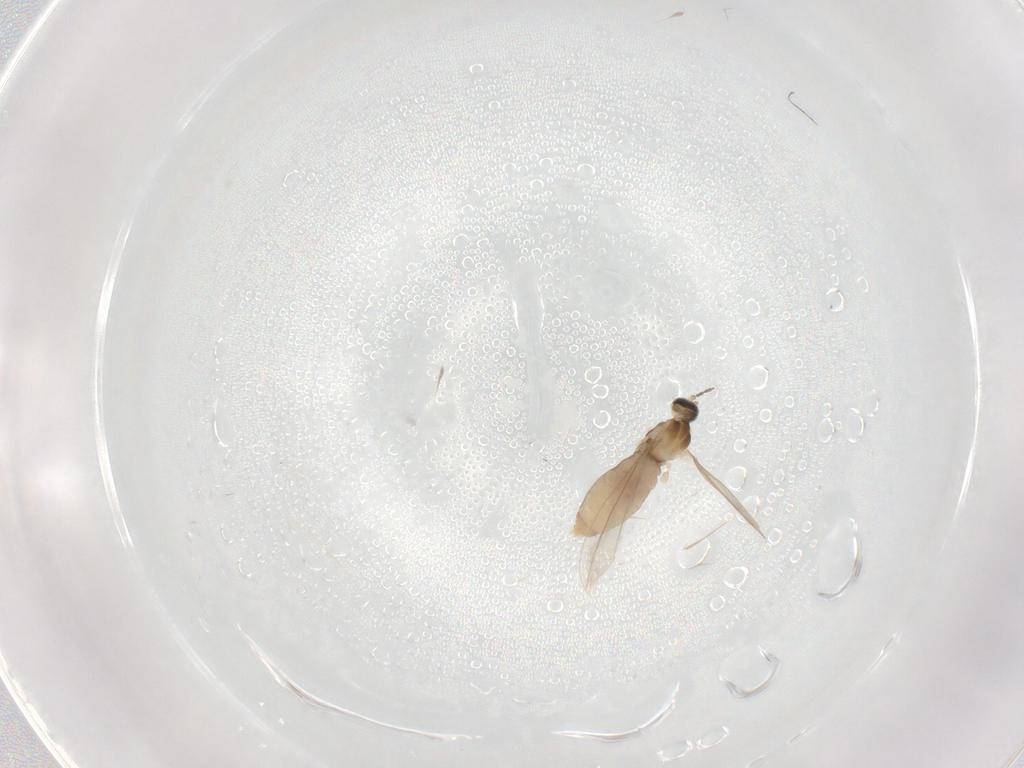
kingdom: Animalia
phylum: Arthropoda
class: Insecta
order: Diptera
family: Cecidomyiidae
